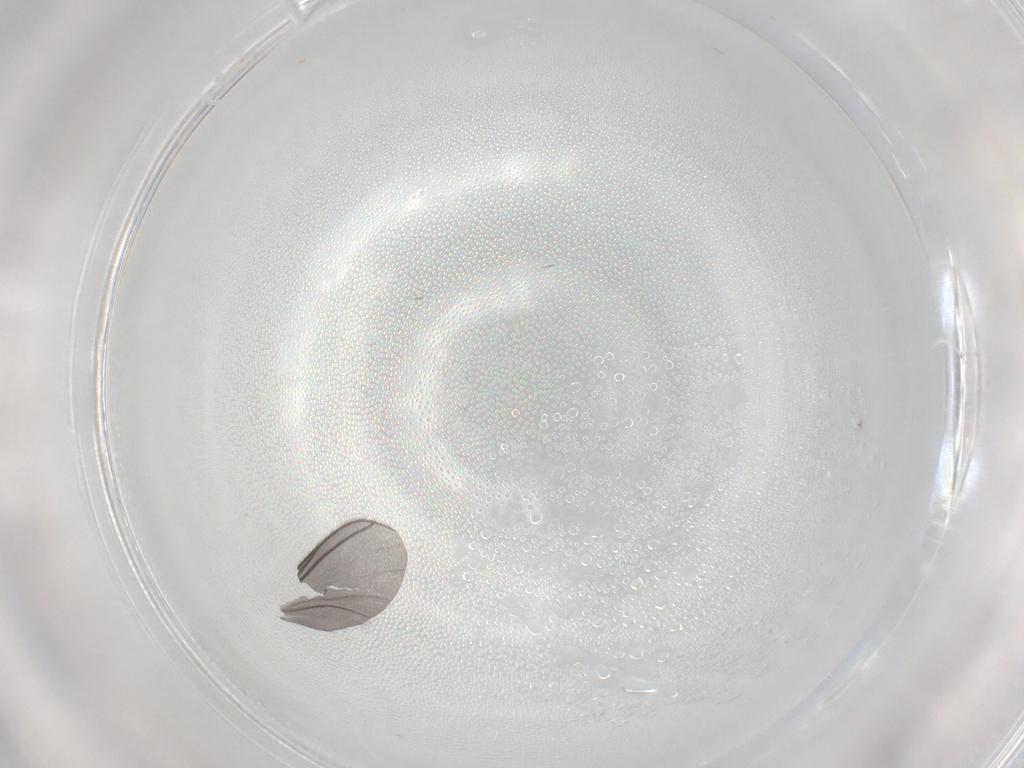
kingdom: Animalia
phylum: Arthropoda
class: Insecta
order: Diptera
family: Sciaridae
